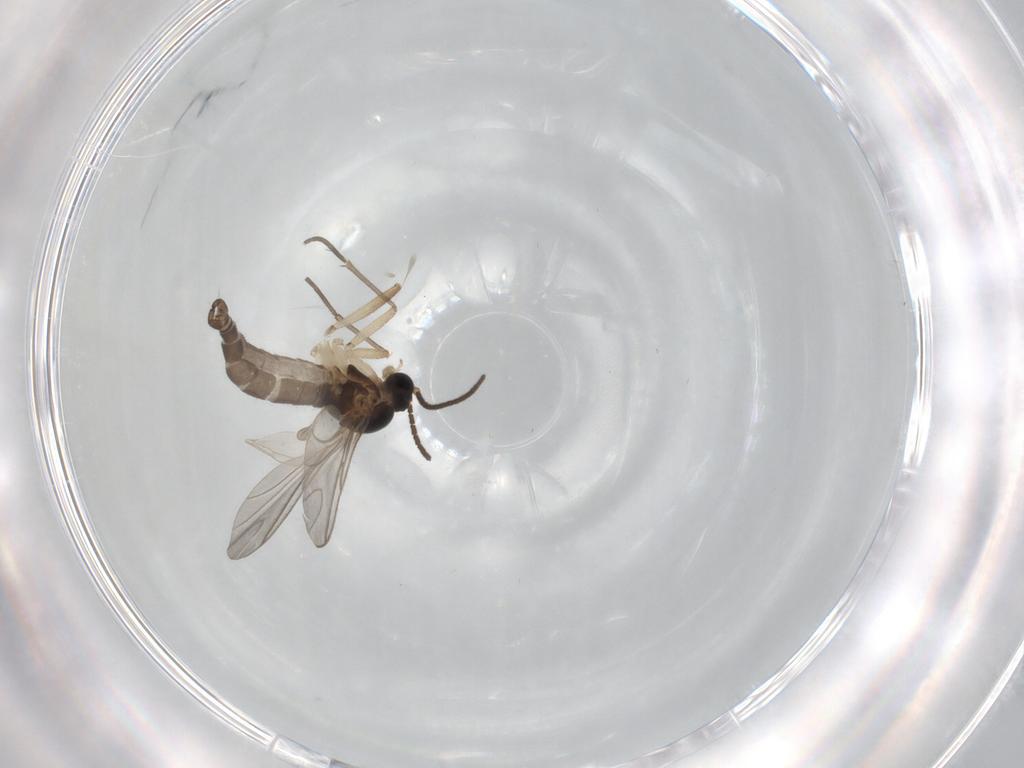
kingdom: Animalia
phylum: Arthropoda
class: Insecta
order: Diptera
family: Sciaridae
